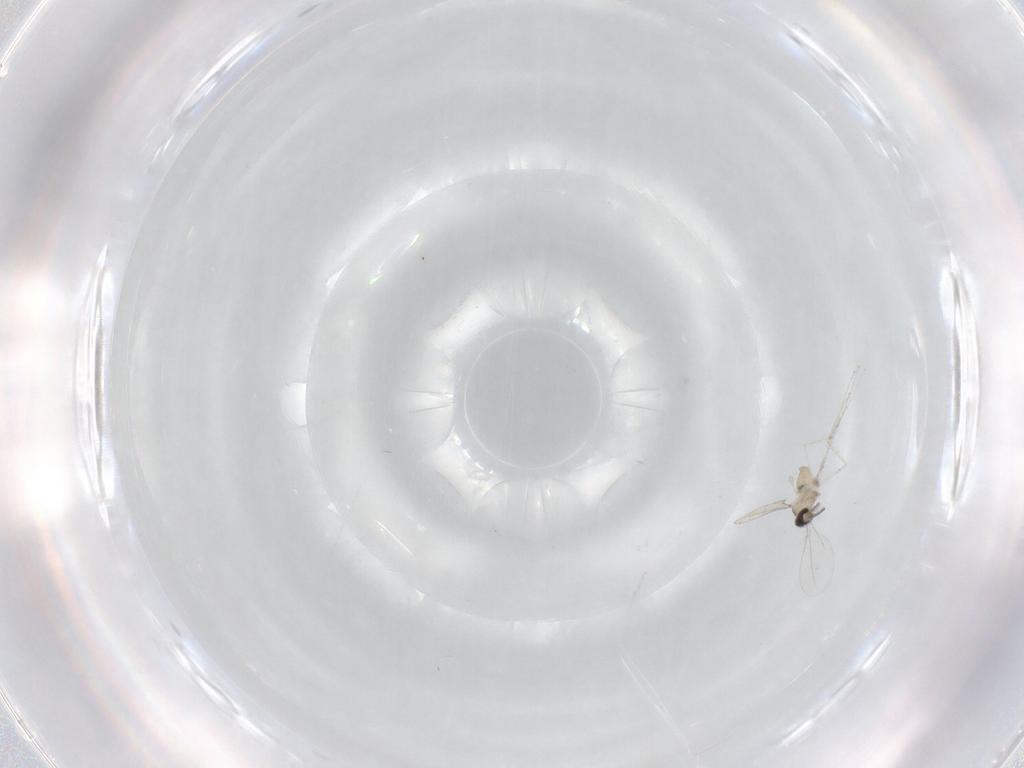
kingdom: Animalia
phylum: Arthropoda
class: Insecta
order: Diptera
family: Cecidomyiidae
